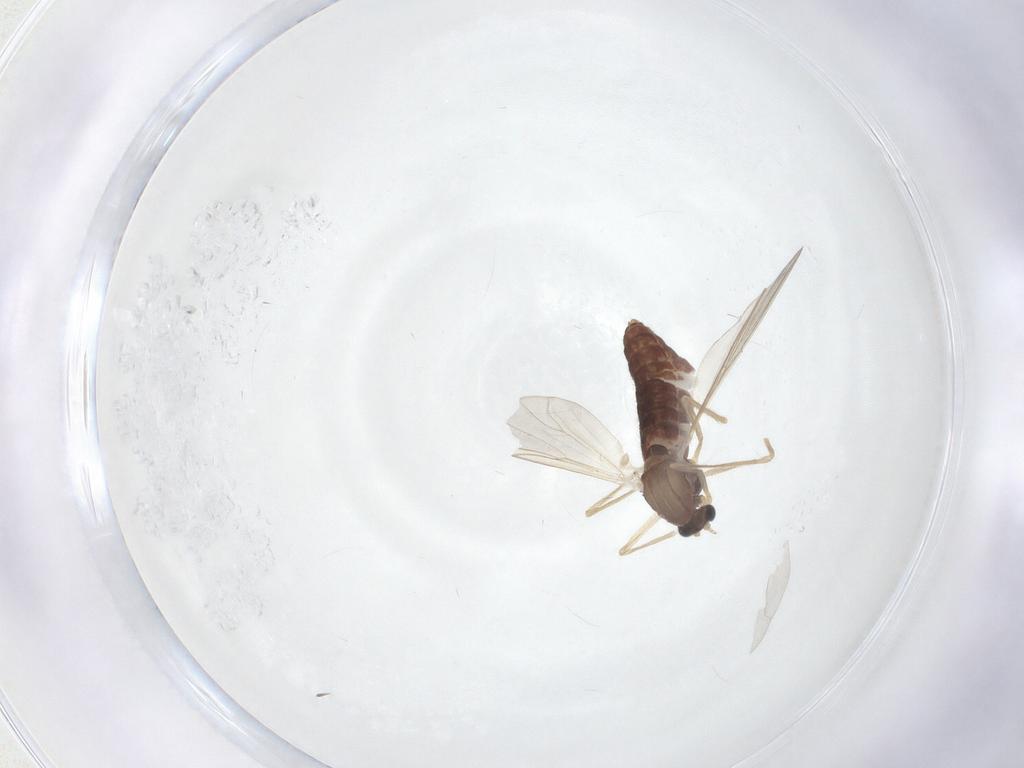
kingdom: Animalia
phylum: Arthropoda
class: Insecta
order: Diptera
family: Chironomidae
